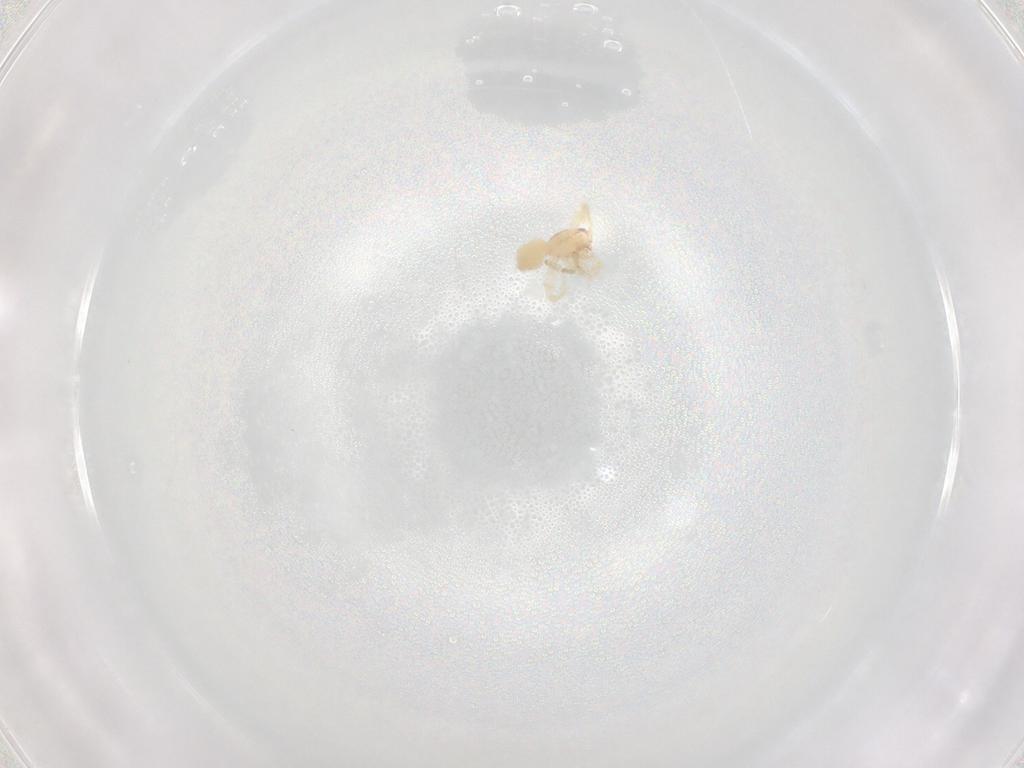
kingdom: Animalia
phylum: Arthropoda
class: Arachnida
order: Araneae
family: Idiopidae
